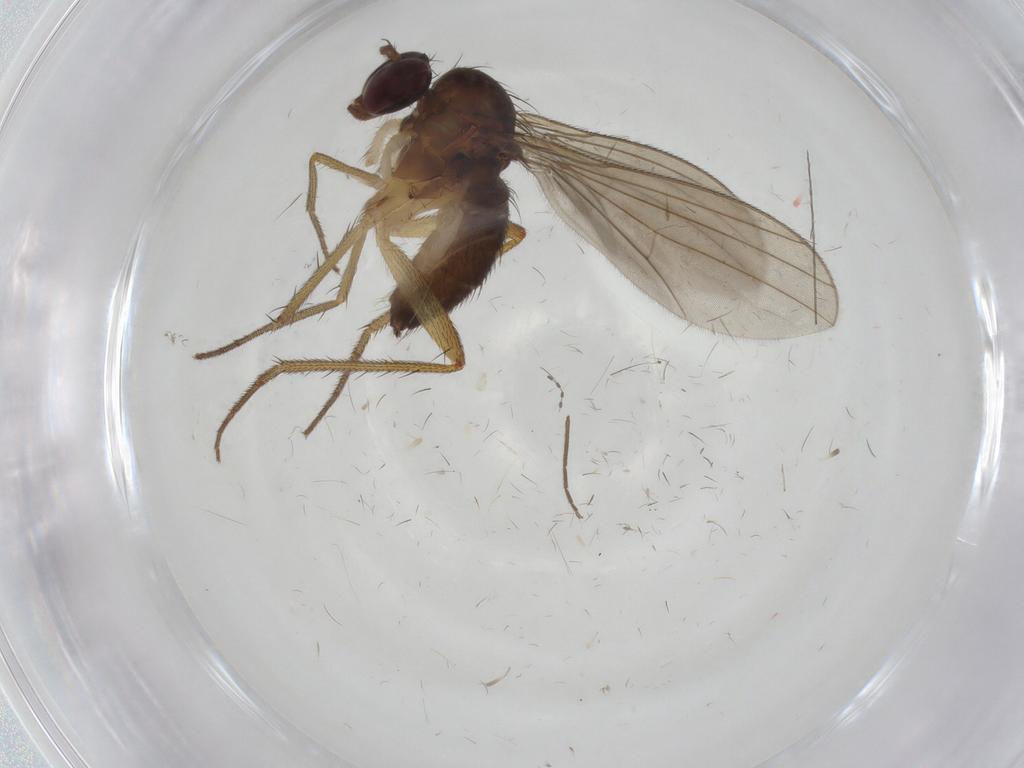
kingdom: Animalia
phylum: Arthropoda
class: Insecta
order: Diptera
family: Dolichopodidae
